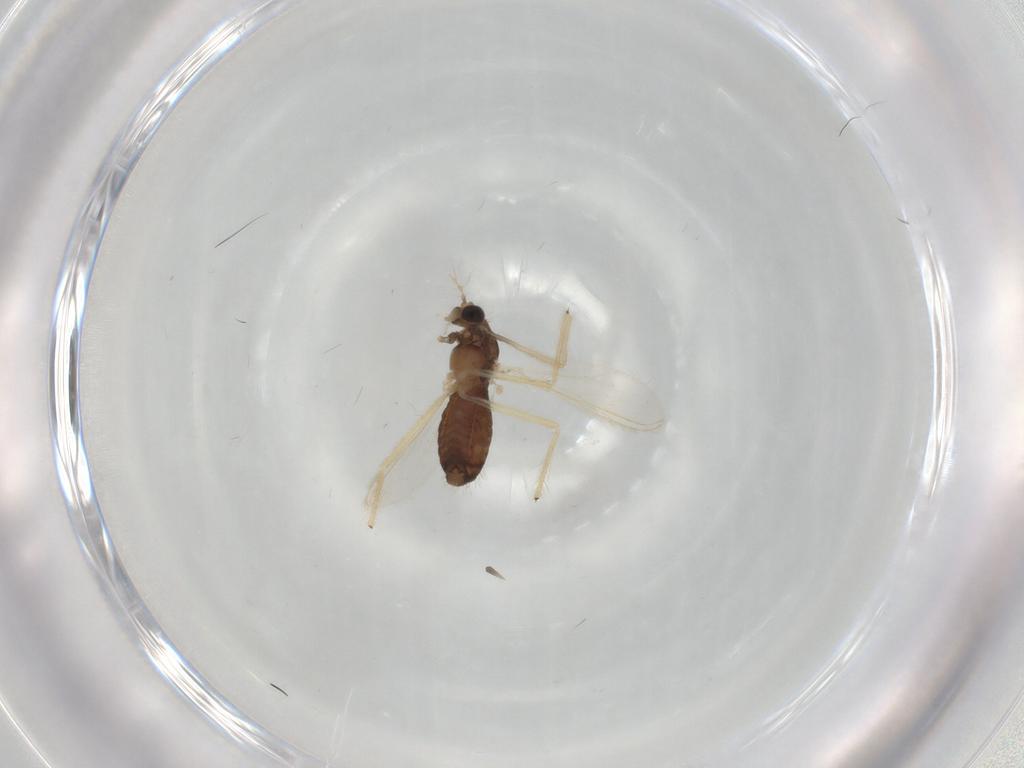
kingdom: Animalia
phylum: Arthropoda
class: Insecta
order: Diptera
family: Chironomidae
